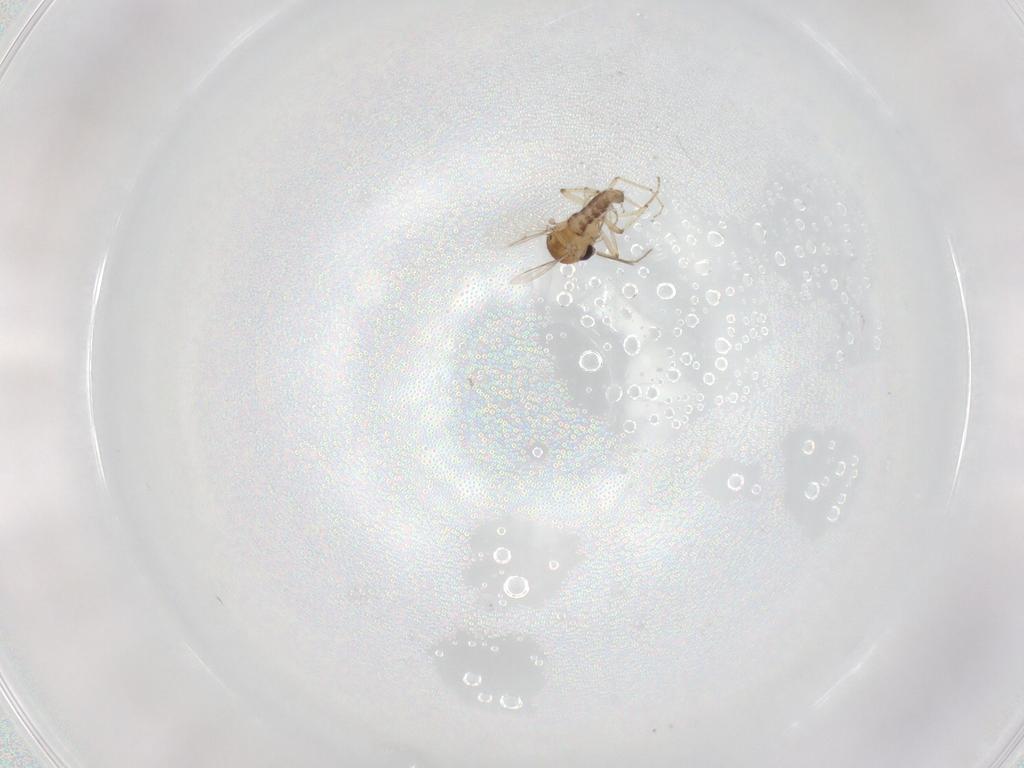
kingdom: Animalia
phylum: Arthropoda
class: Insecta
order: Diptera
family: Ceratopogonidae
